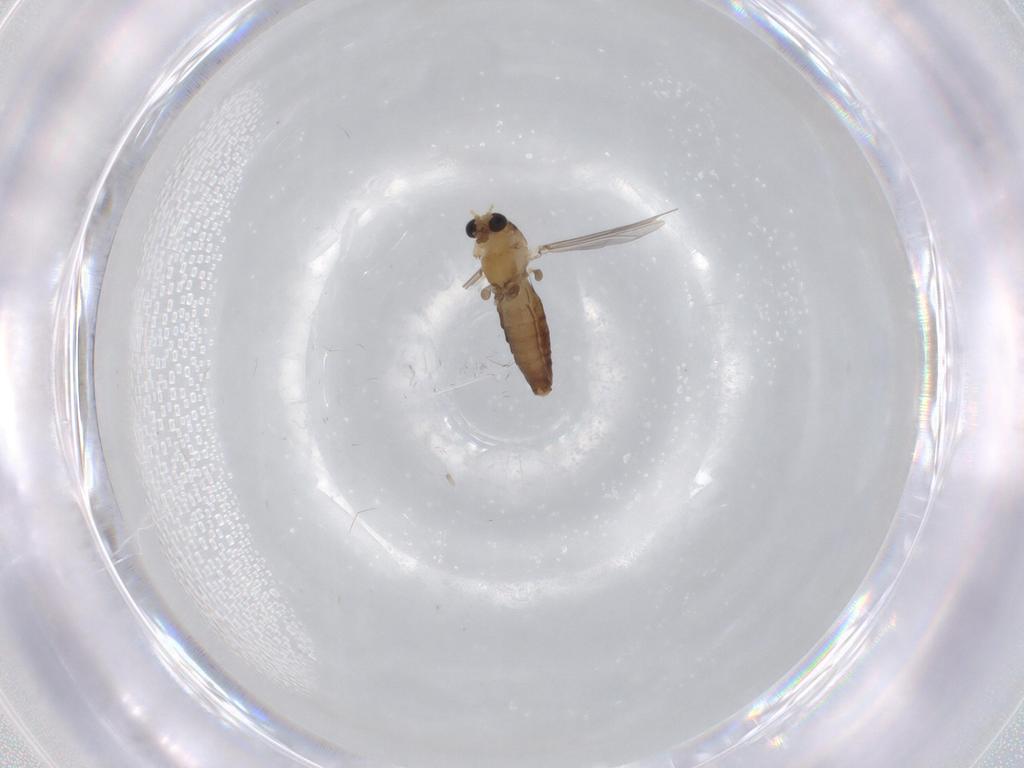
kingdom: Animalia
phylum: Arthropoda
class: Insecta
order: Diptera
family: Chironomidae
